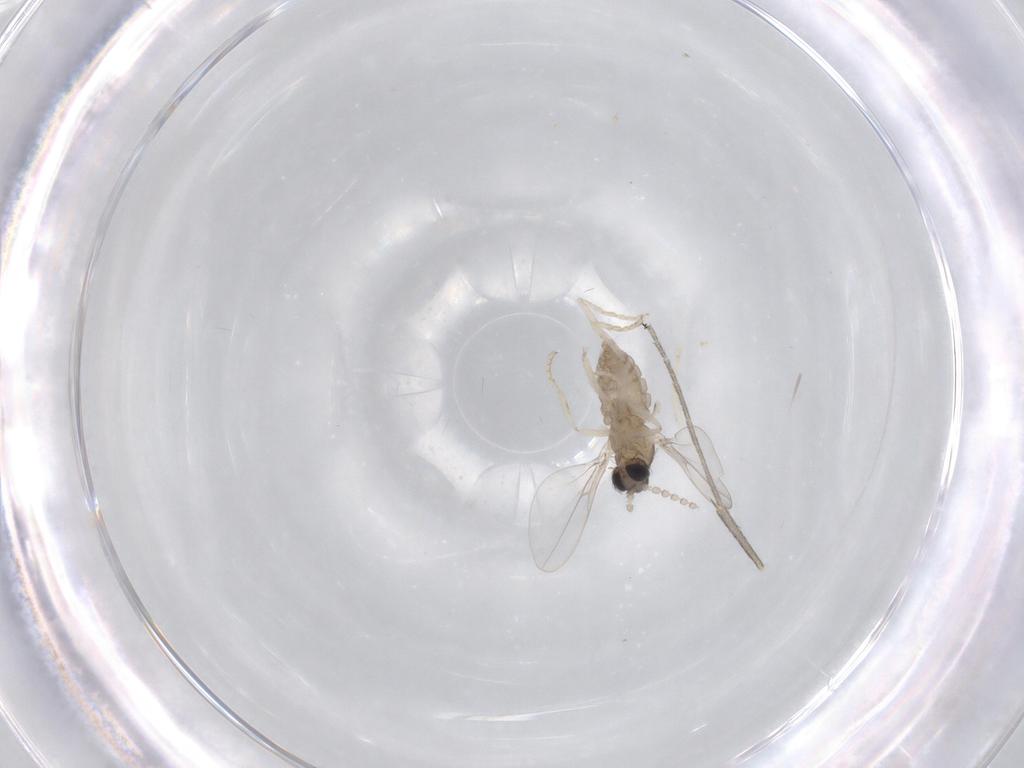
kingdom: Animalia
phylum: Arthropoda
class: Insecta
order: Diptera
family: Cecidomyiidae
